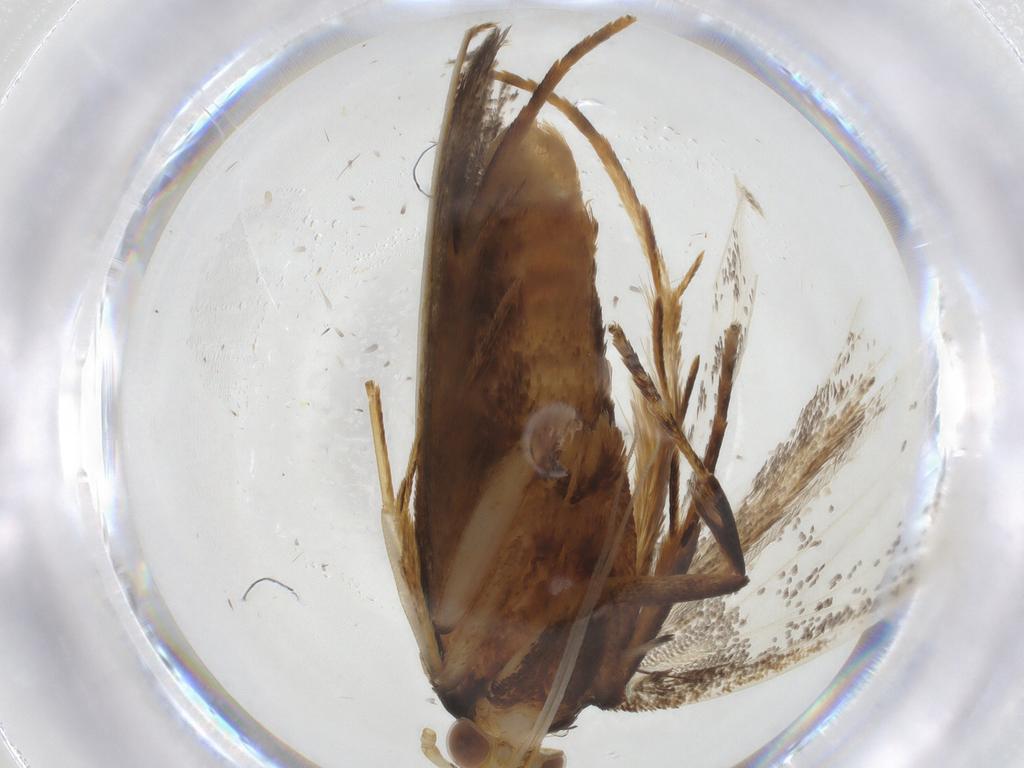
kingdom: Animalia
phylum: Arthropoda
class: Insecta
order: Lepidoptera
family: Lecithoceridae
